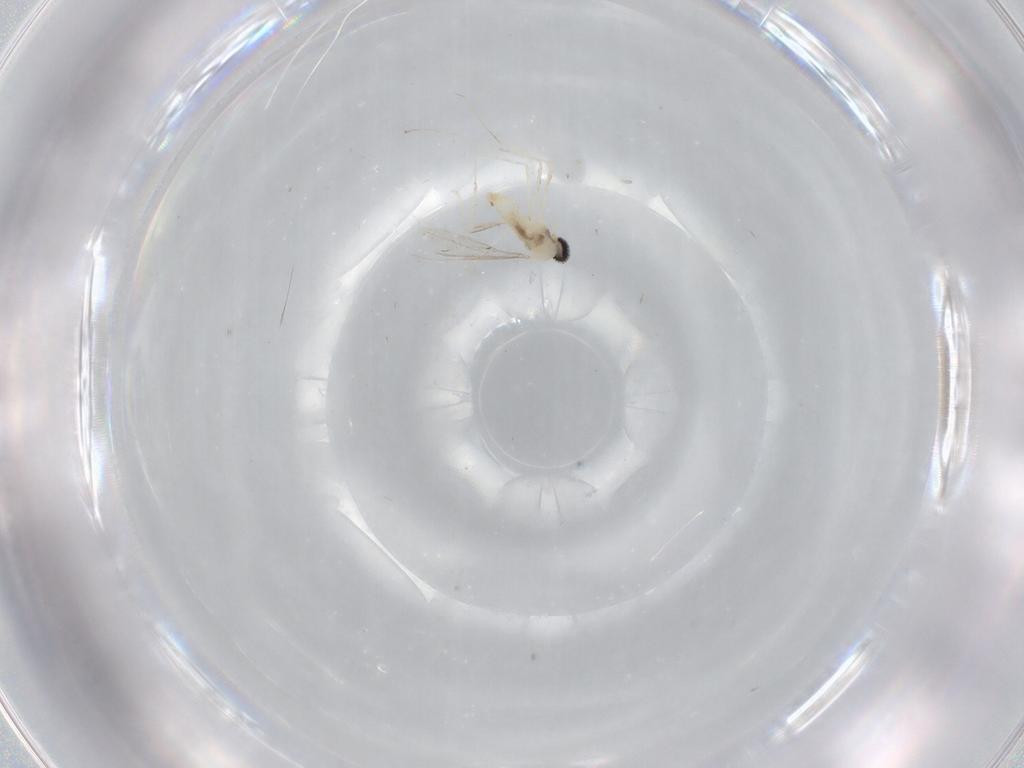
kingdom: Animalia
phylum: Arthropoda
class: Insecta
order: Diptera
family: Cecidomyiidae
